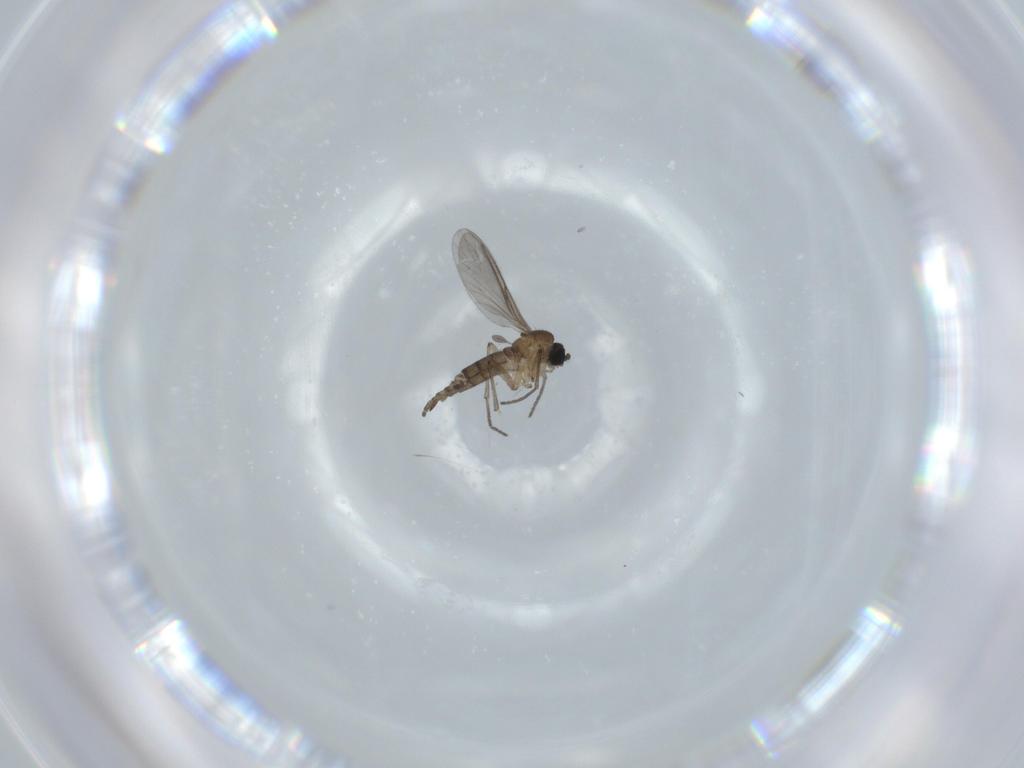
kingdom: Animalia
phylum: Arthropoda
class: Insecta
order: Diptera
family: Sciaridae
